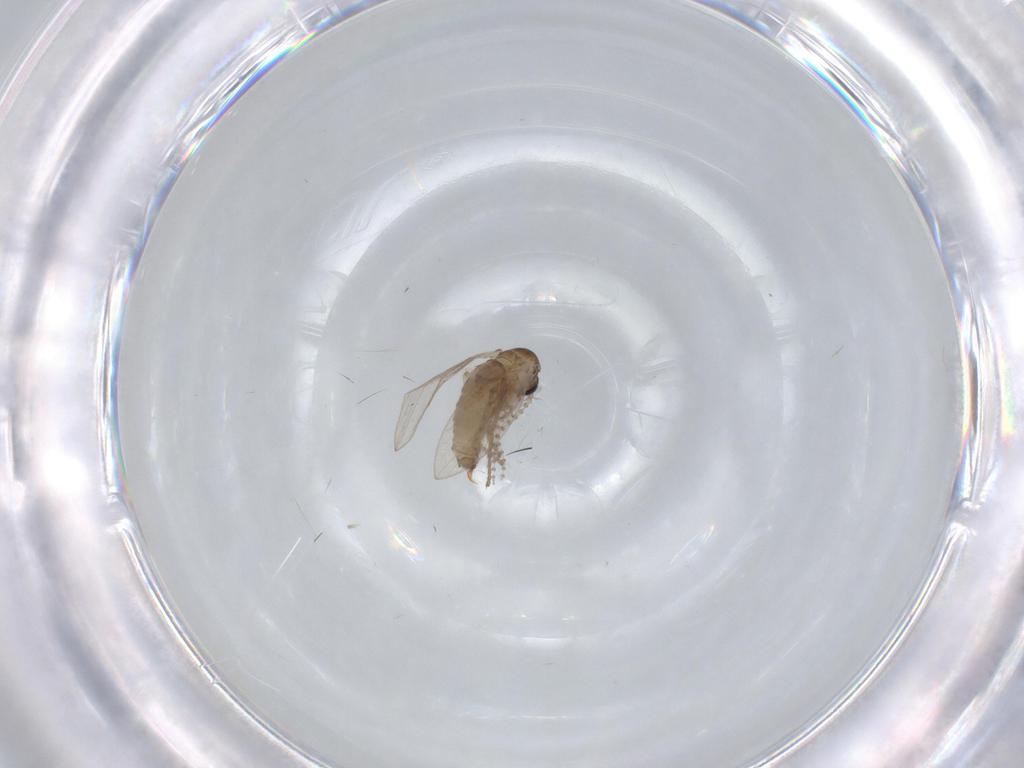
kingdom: Animalia
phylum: Arthropoda
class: Insecta
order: Diptera
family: Psychodidae
